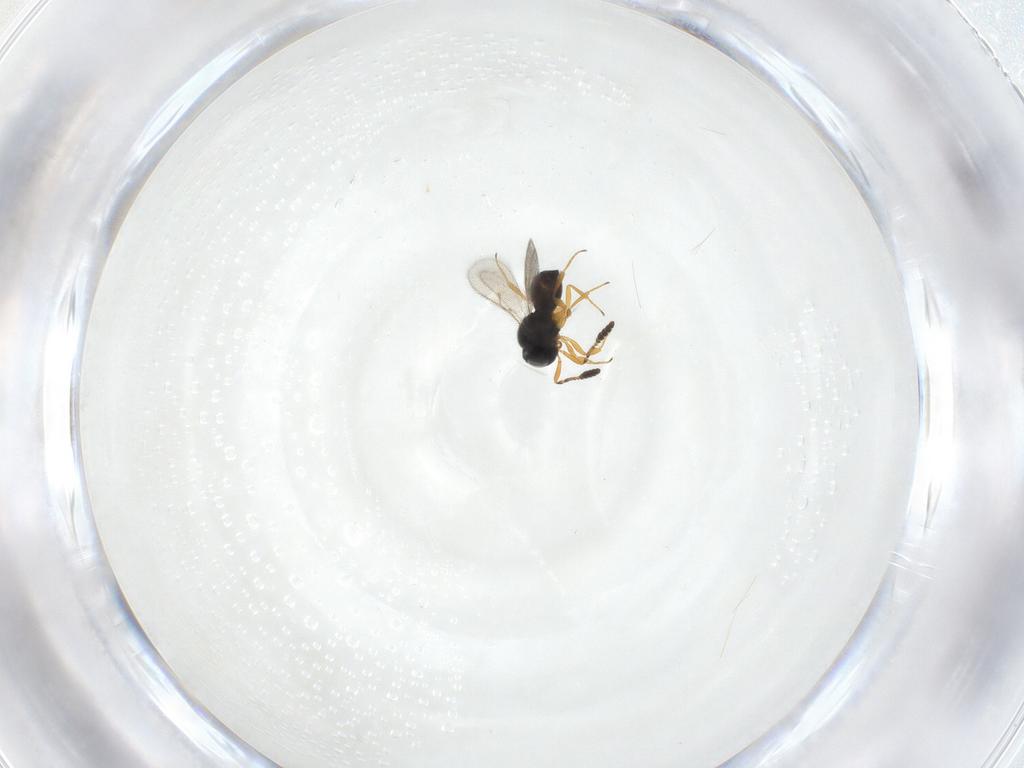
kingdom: Animalia
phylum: Arthropoda
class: Insecta
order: Hymenoptera
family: Scelionidae
